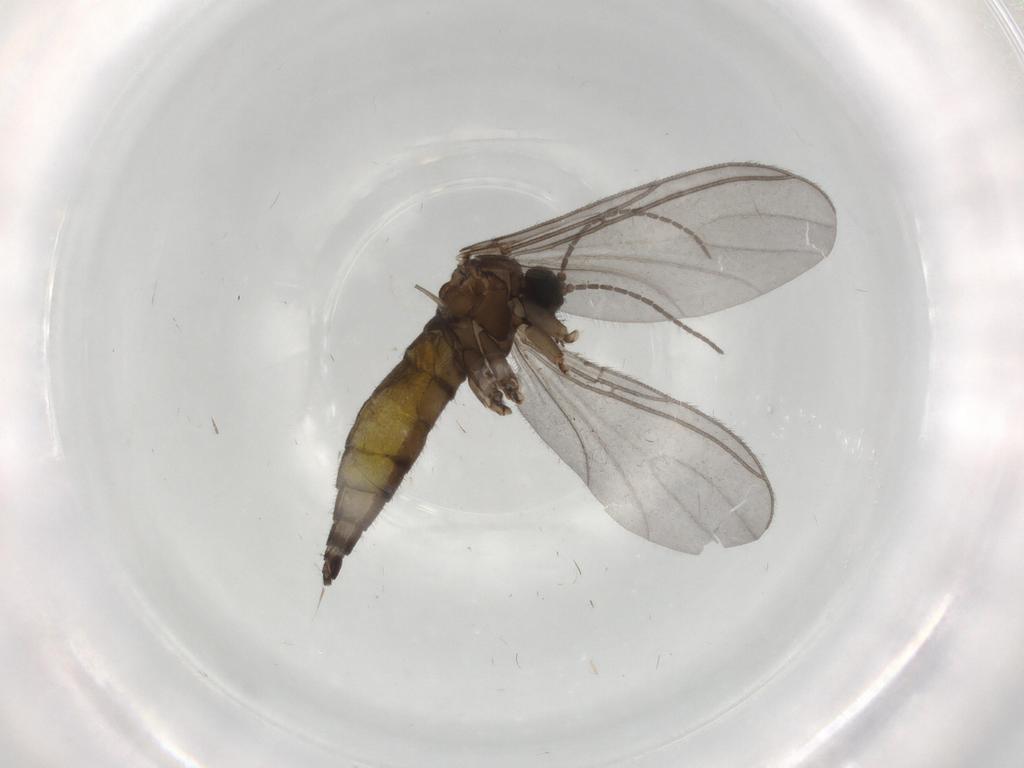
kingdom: Animalia
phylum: Arthropoda
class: Insecta
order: Diptera
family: Sciaridae
